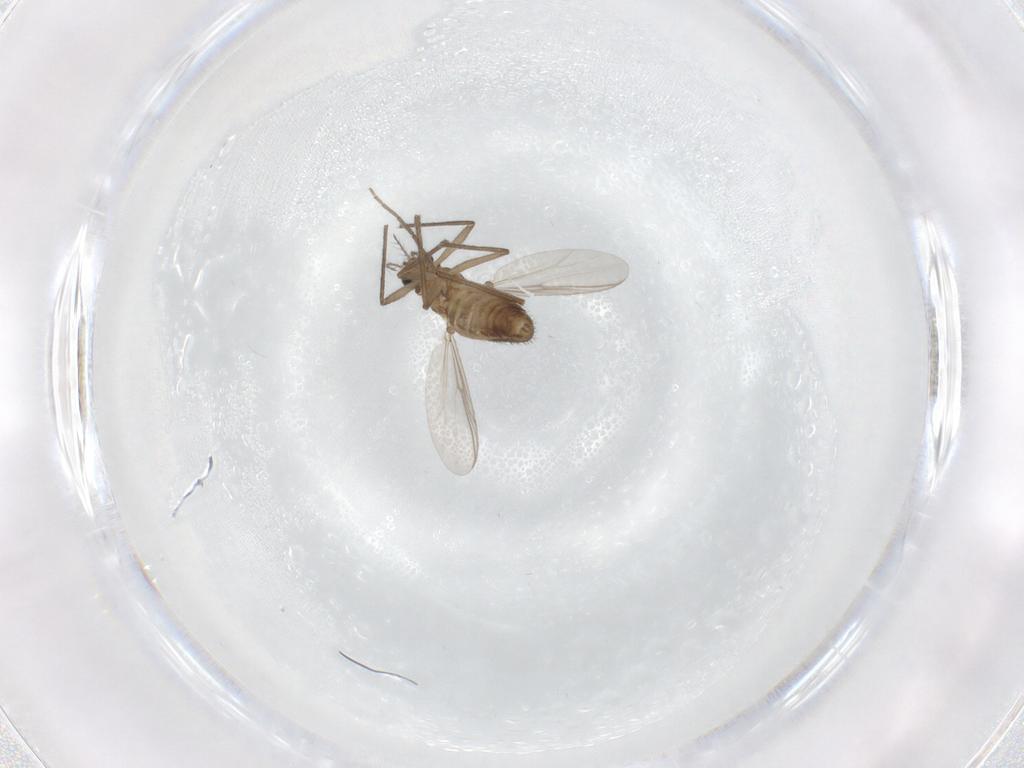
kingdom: Animalia
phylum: Arthropoda
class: Insecta
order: Diptera
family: Chironomidae
